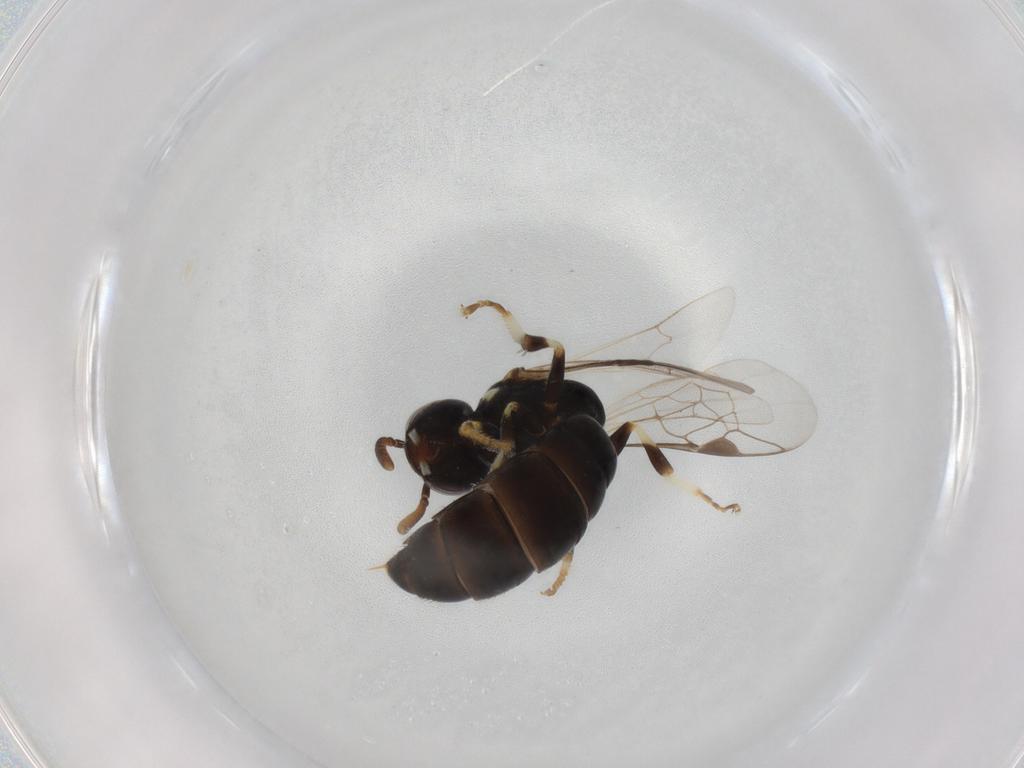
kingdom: Animalia
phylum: Arthropoda
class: Insecta
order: Hymenoptera
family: Colletidae
